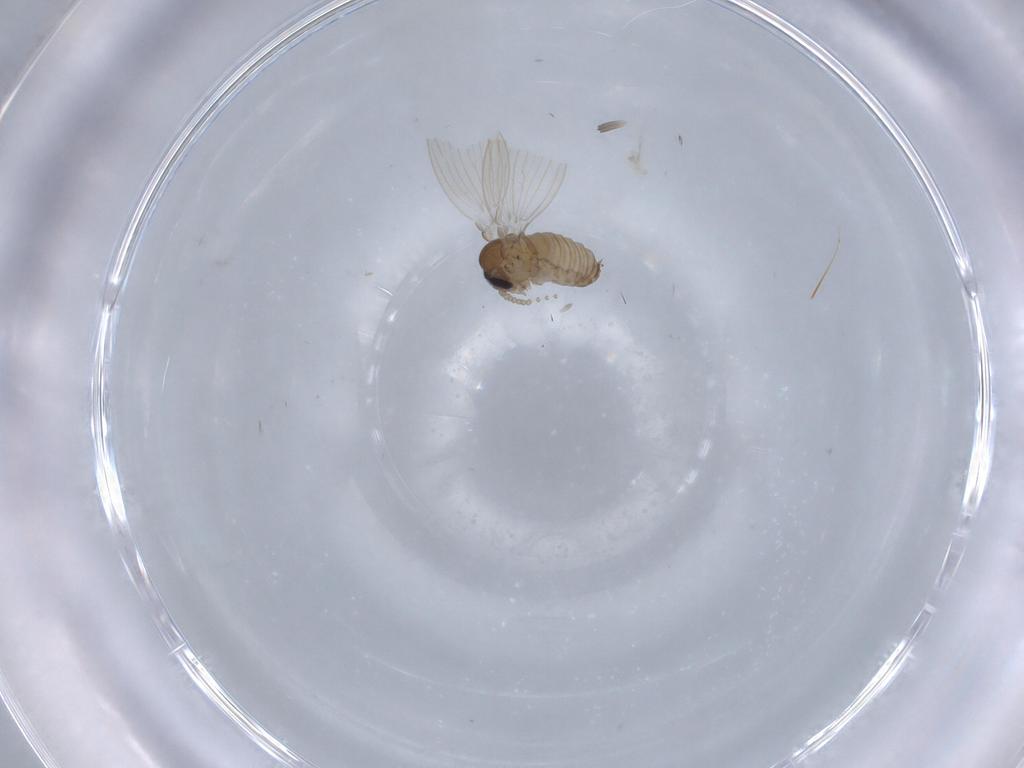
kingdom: Animalia
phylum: Arthropoda
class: Insecta
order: Diptera
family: Psychodidae
